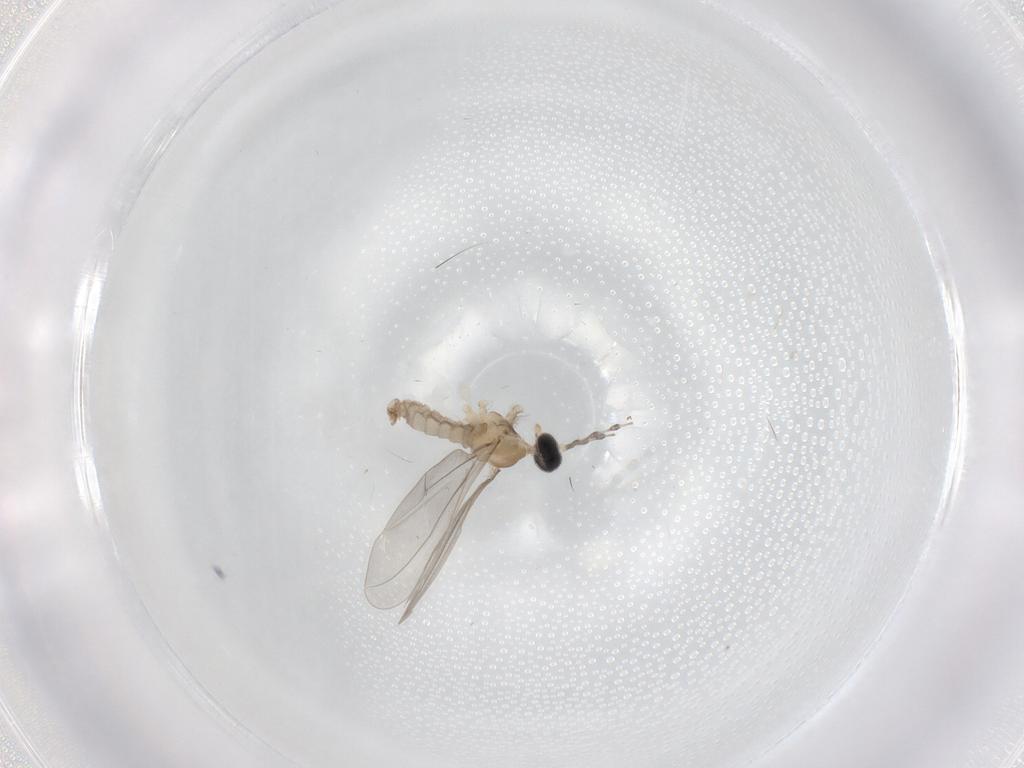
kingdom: Animalia
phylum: Arthropoda
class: Insecta
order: Diptera
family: Cecidomyiidae
